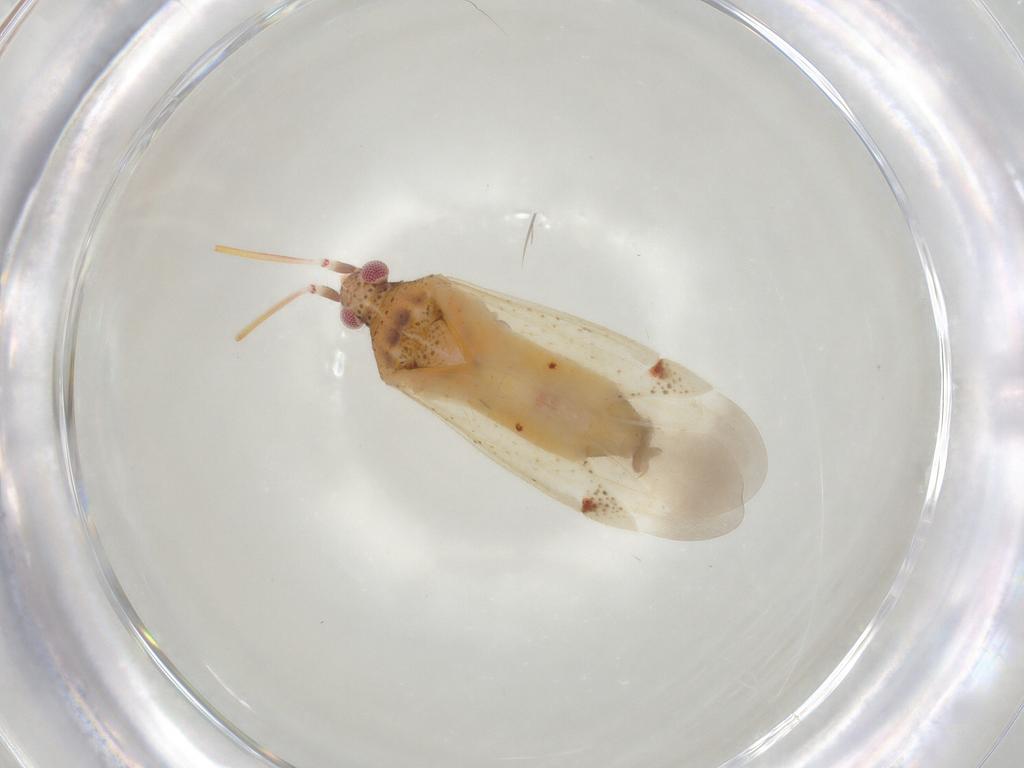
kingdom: Animalia
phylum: Arthropoda
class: Insecta
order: Hemiptera
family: Miridae
